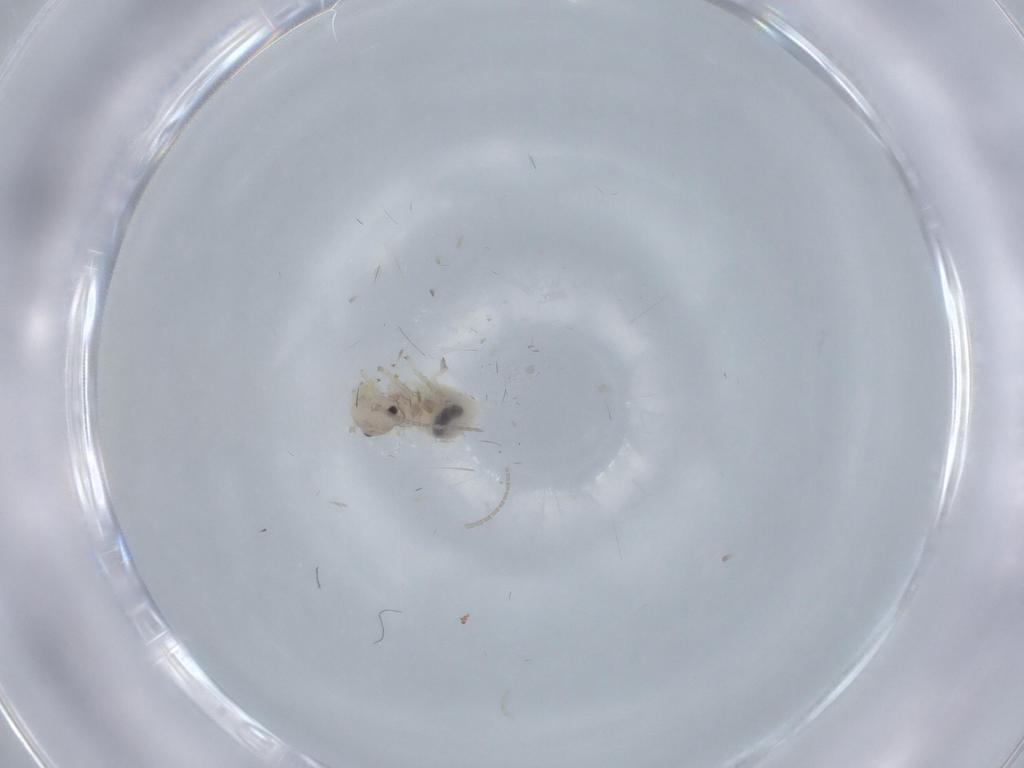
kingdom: Animalia
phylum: Arthropoda
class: Insecta
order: Psocodea
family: Amphipsocidae
